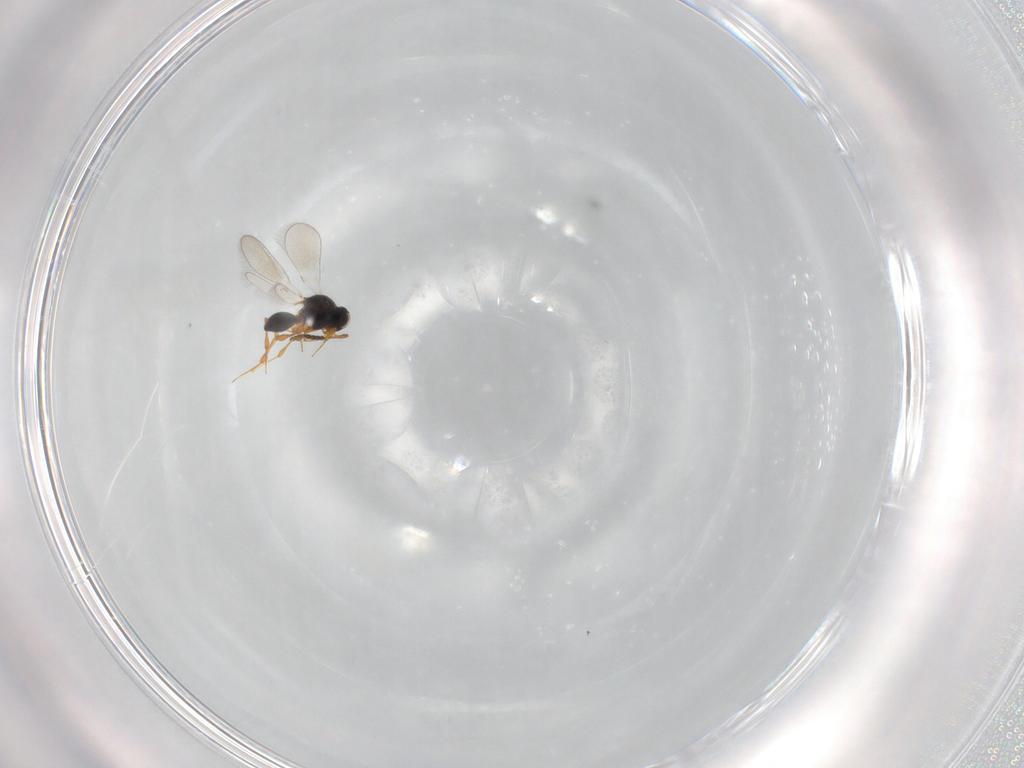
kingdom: Animalia
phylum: Arthropoda
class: Insecta
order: Hymenoptera
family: Platygastridae
